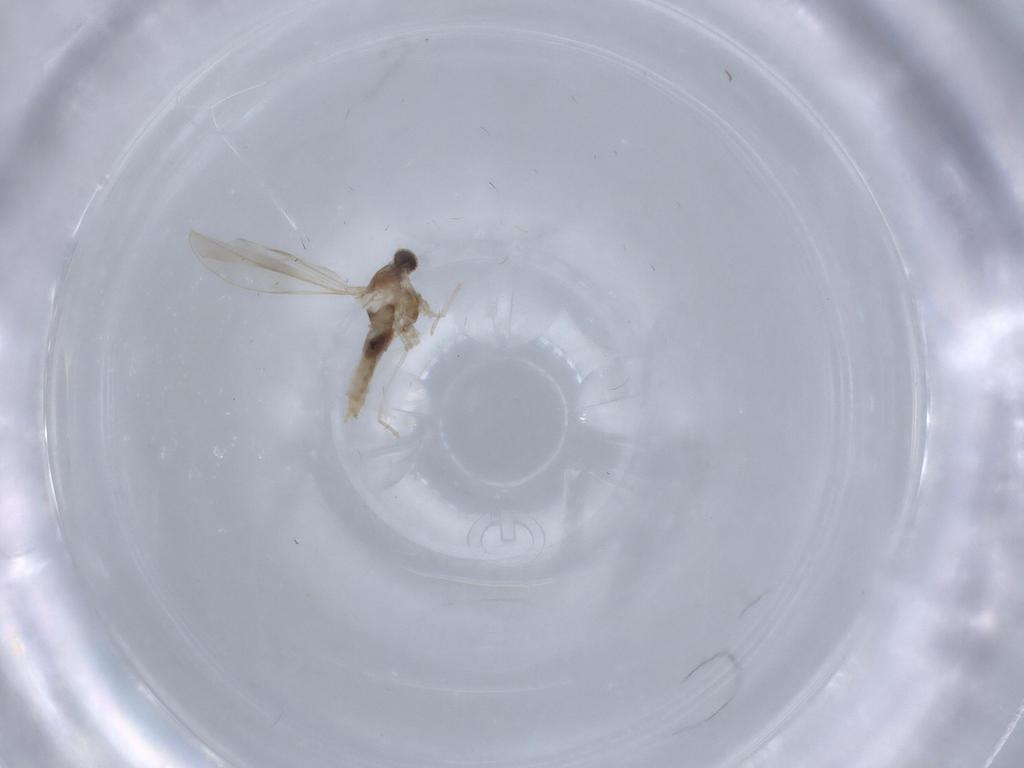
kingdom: Animalia
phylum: Arthropoda
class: Insecta
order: Diptera
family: Cecidomyiidae
